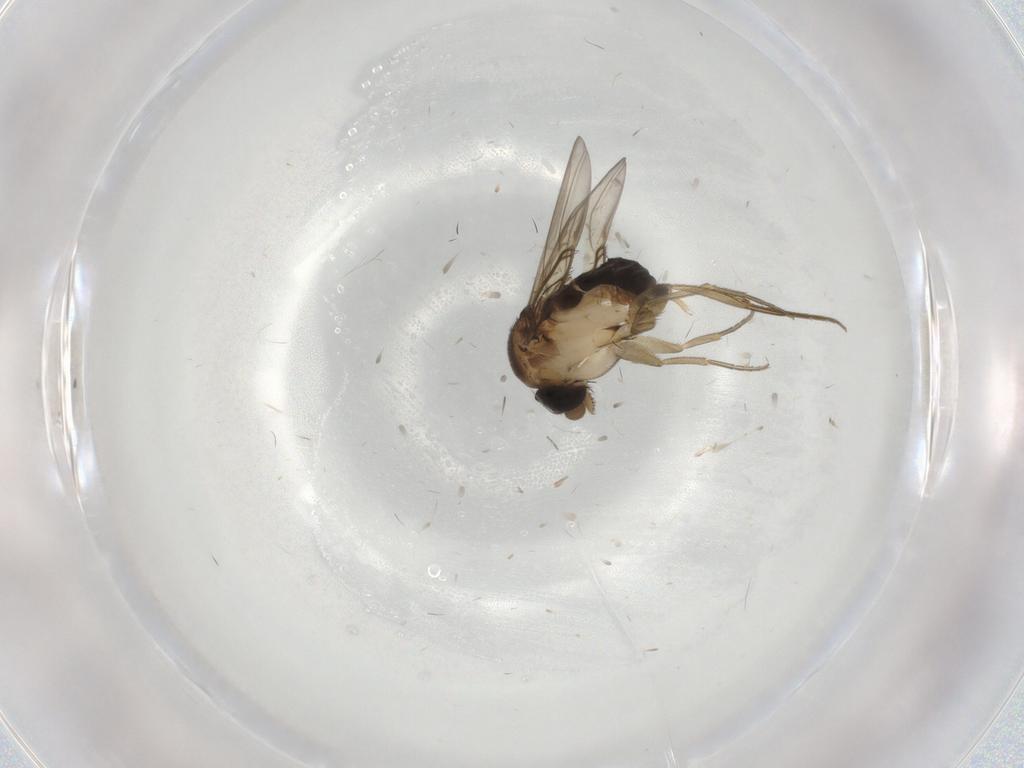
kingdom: Animalia
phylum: Arthropoda
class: Insecta
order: Diptera
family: Phoridae
